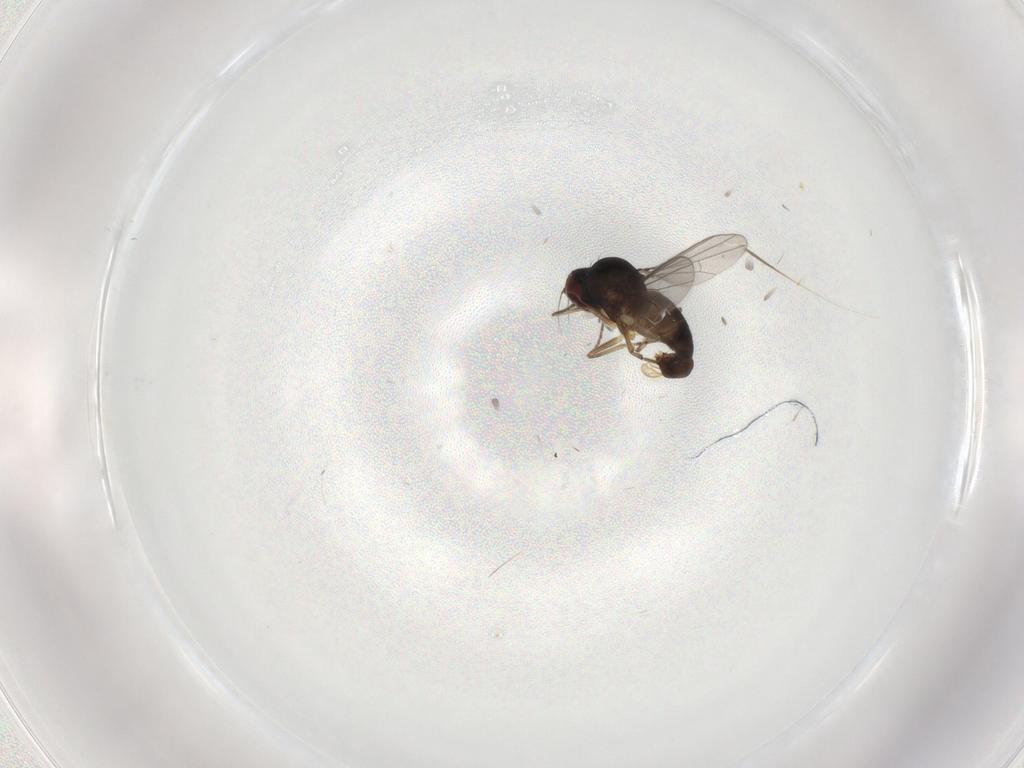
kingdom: Animalia
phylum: Arthropoda
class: Insecta
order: Diptera
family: Dolichopodidae
